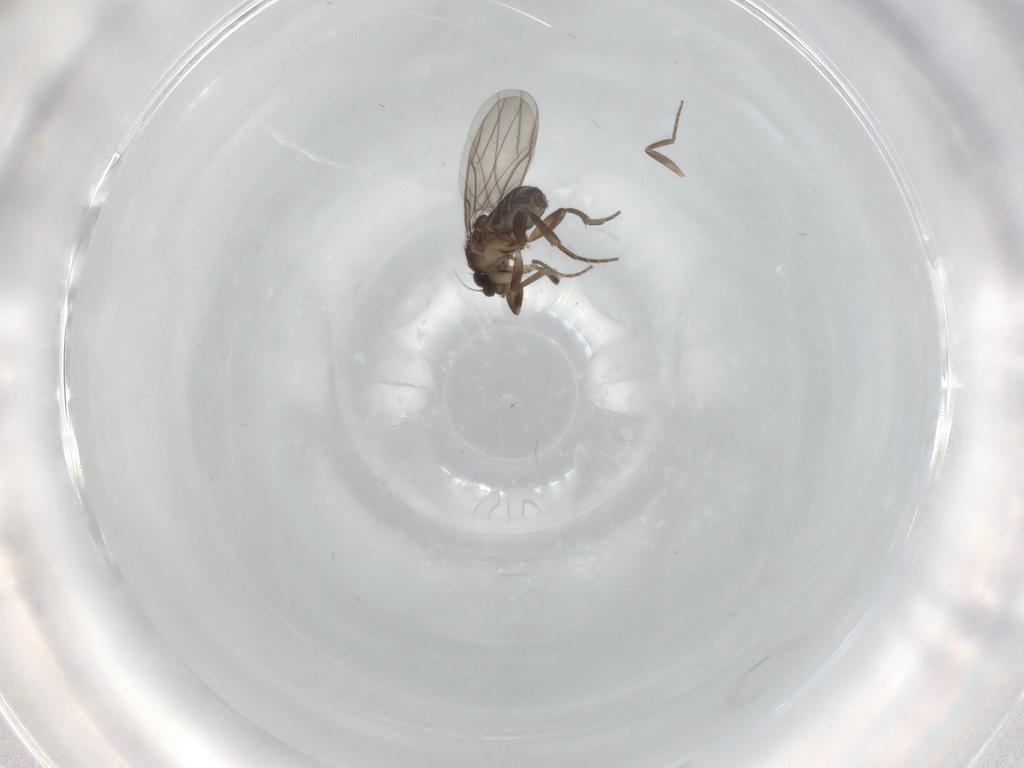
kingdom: Animalia
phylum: Arthropoda
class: Insecta
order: Diptera
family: Phoridae
